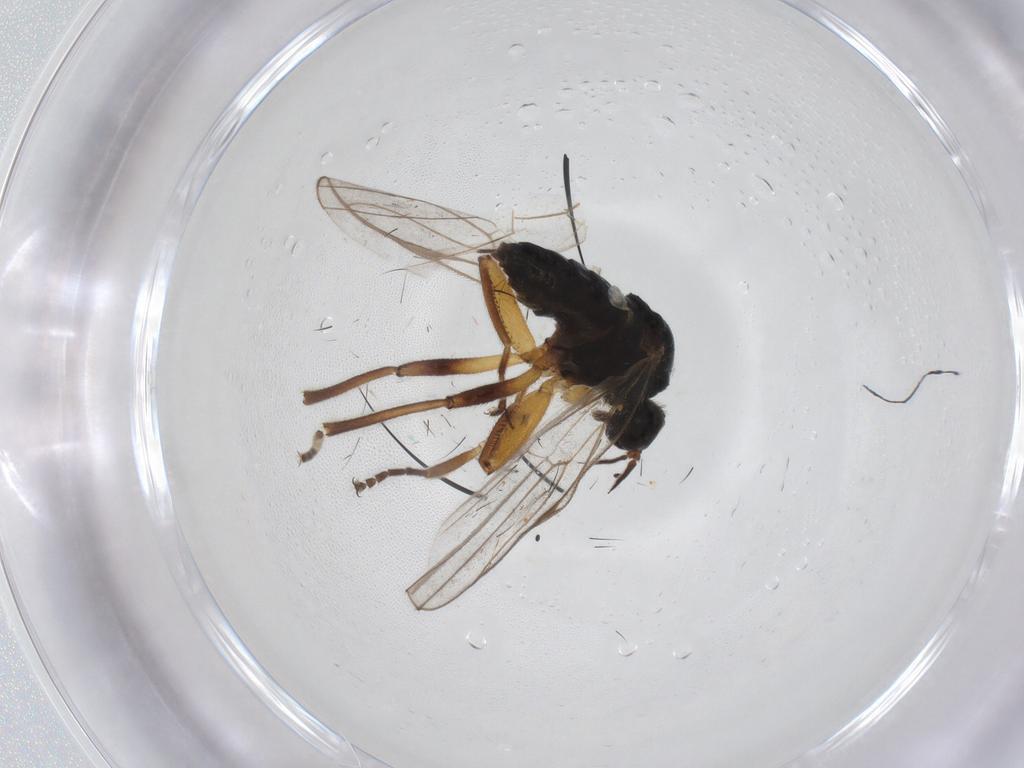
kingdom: Animalia
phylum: Arthropoda
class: Insecta
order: Diptera
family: Hybotidae
